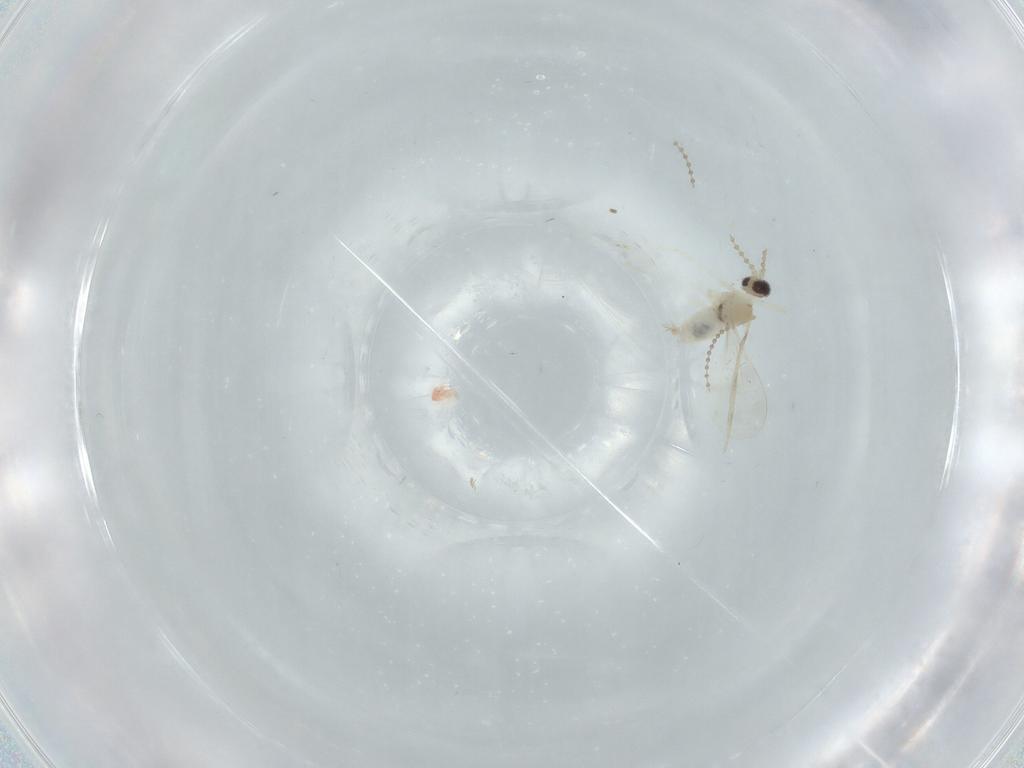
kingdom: Animalia
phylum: Arthropoda
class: Insecta
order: Diptera
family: Cecidomyiidae
